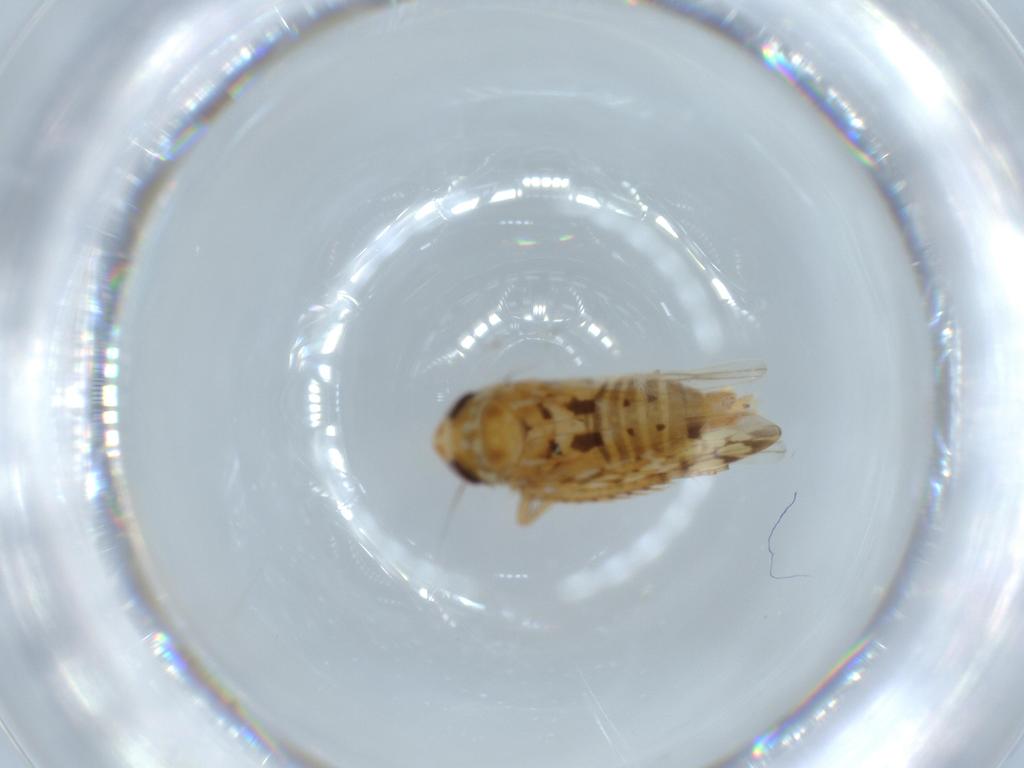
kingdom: Animalia
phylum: Arthropoda
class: Insecta
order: Hemiptera
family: Cicadellidae
